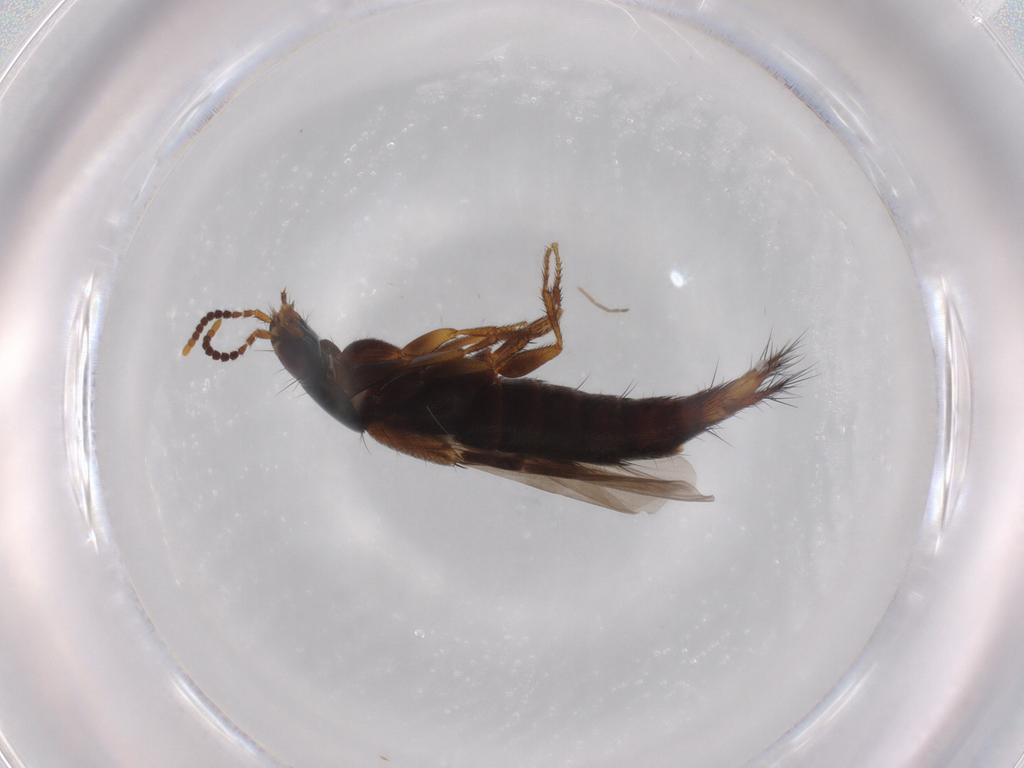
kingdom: Animalia
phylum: Arthropoda
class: Insecta
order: Coleoptera
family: Staphylinidae
